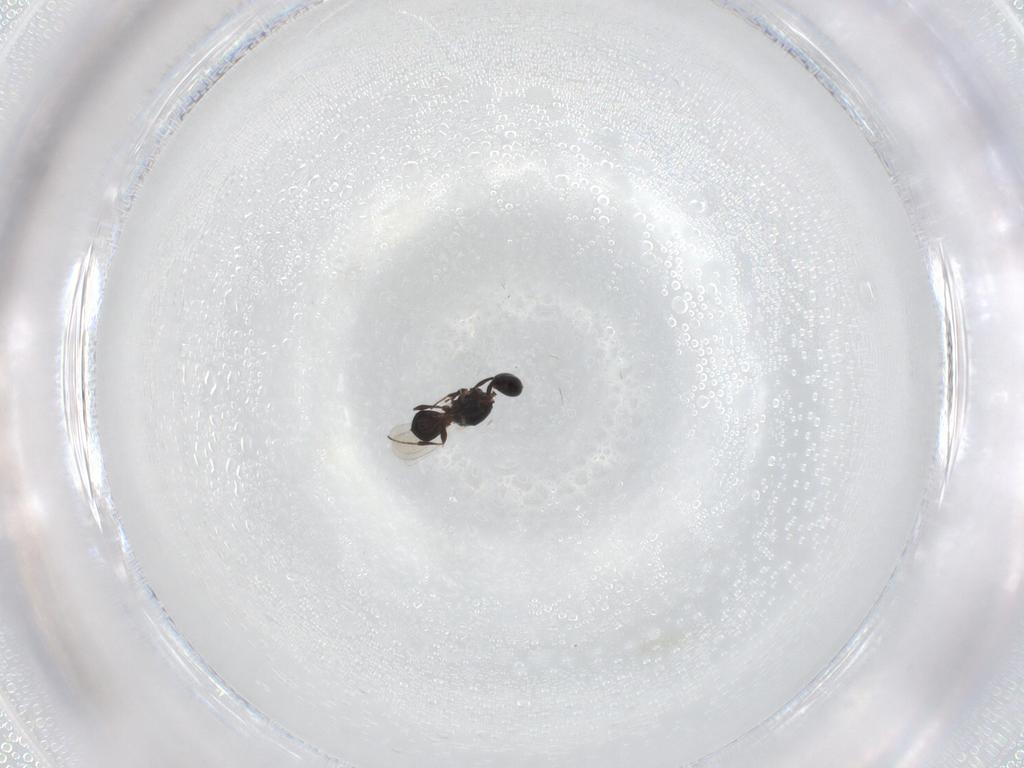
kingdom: Animalia
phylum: Arthropoda
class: Insecta
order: Hymenoptera
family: Platygastridae
